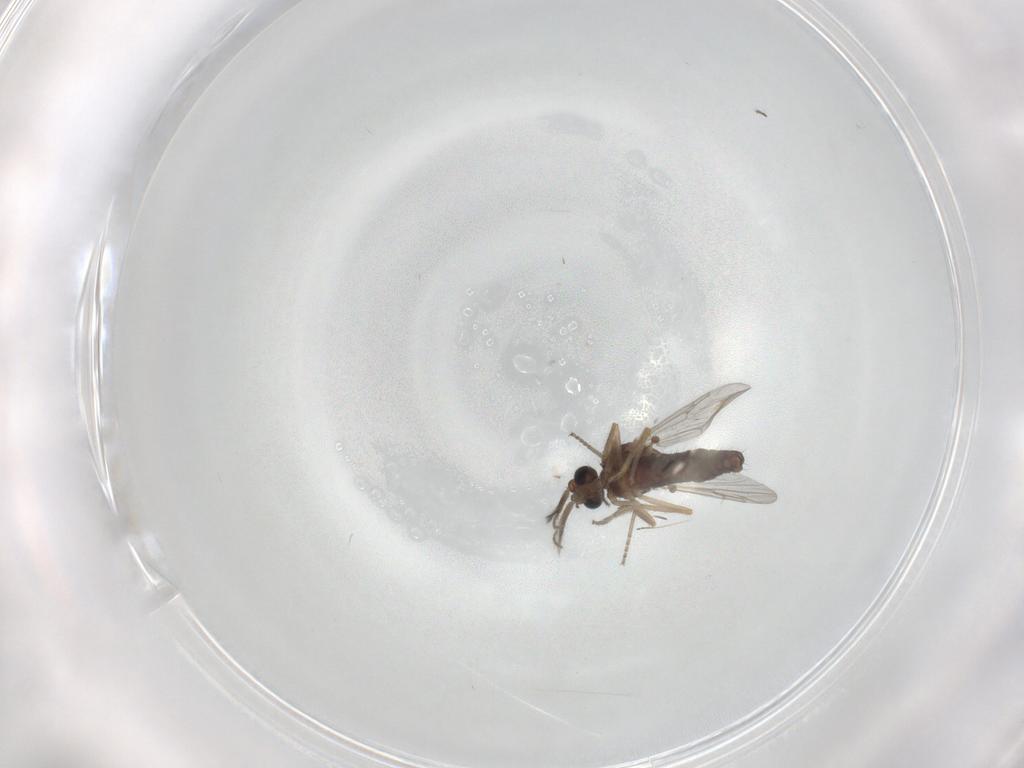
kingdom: Animalia
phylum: Arthropoda
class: Insecta
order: Diptera
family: Ceratopogonidae
